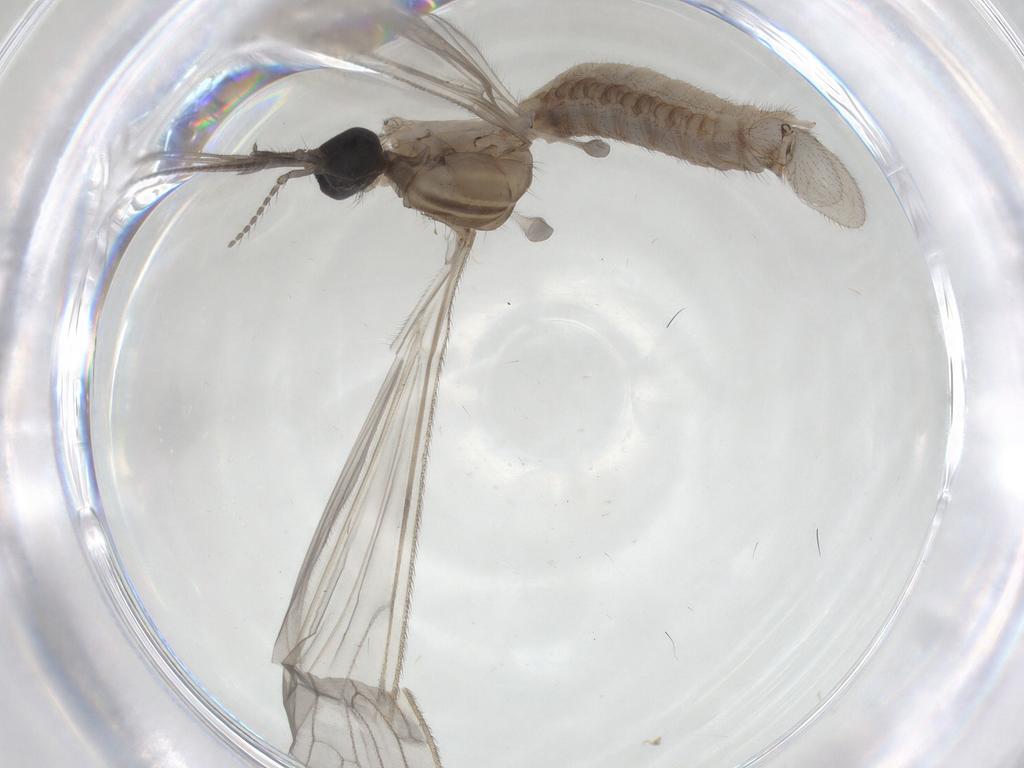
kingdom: Animalia
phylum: Arthropoda
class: Insecta
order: Diptera
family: Limoniidae
